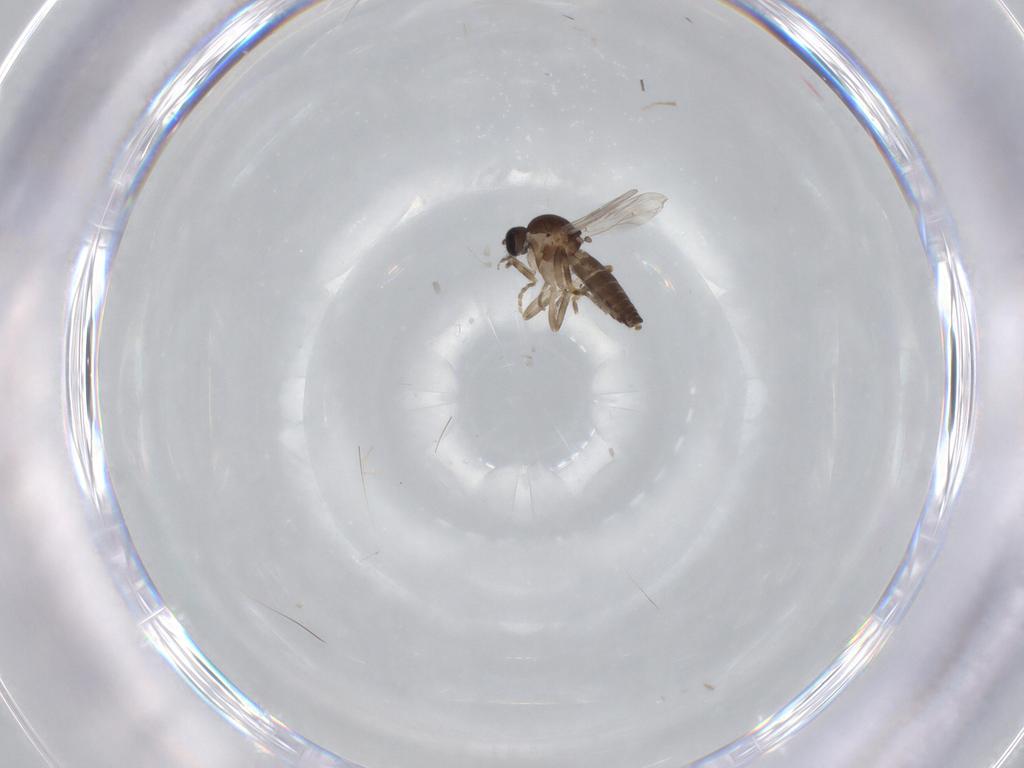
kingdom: Animalia
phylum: Arthropoda
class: Insecta
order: Diptera
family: Ceratopogonidae
